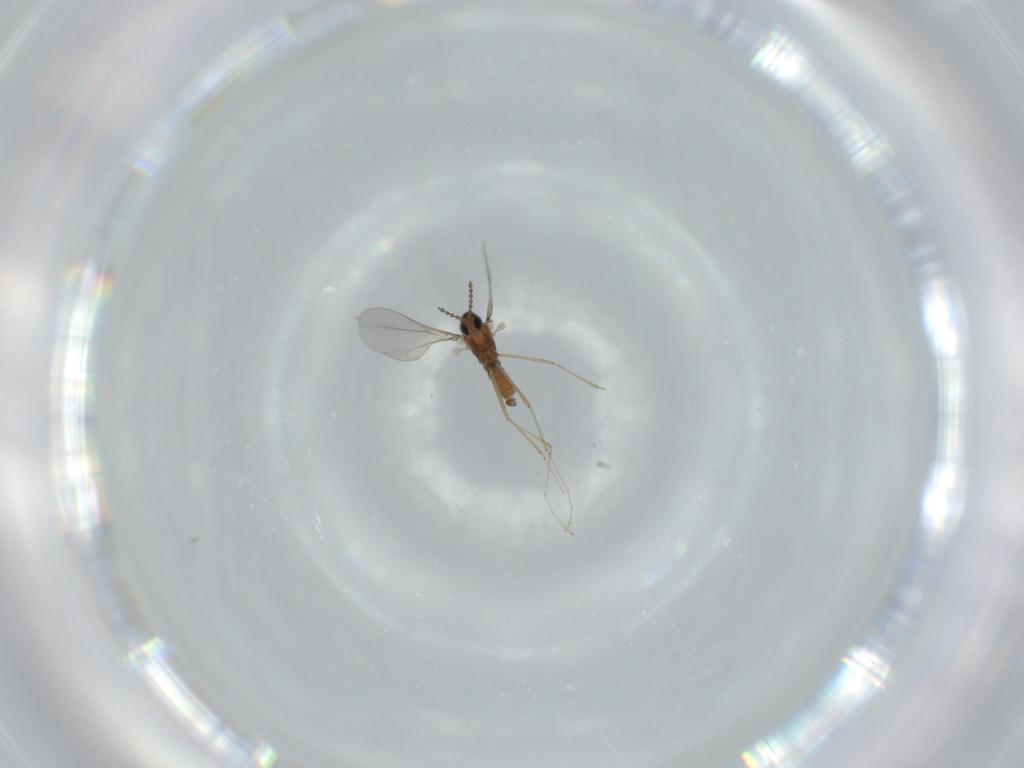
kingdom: Animalia
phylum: Arthropoda
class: Insecta
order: Diptera
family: Cecidomyiidae
